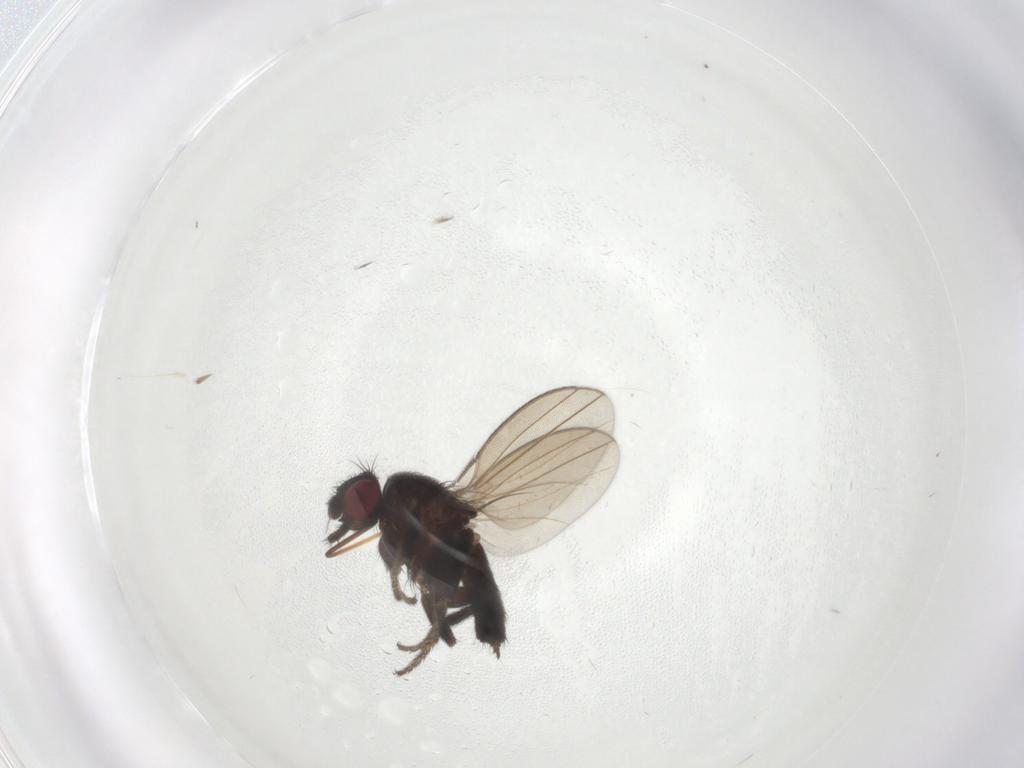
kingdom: Animalia
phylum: Arthropoda
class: Insecta
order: Diptera
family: Milichiidae
